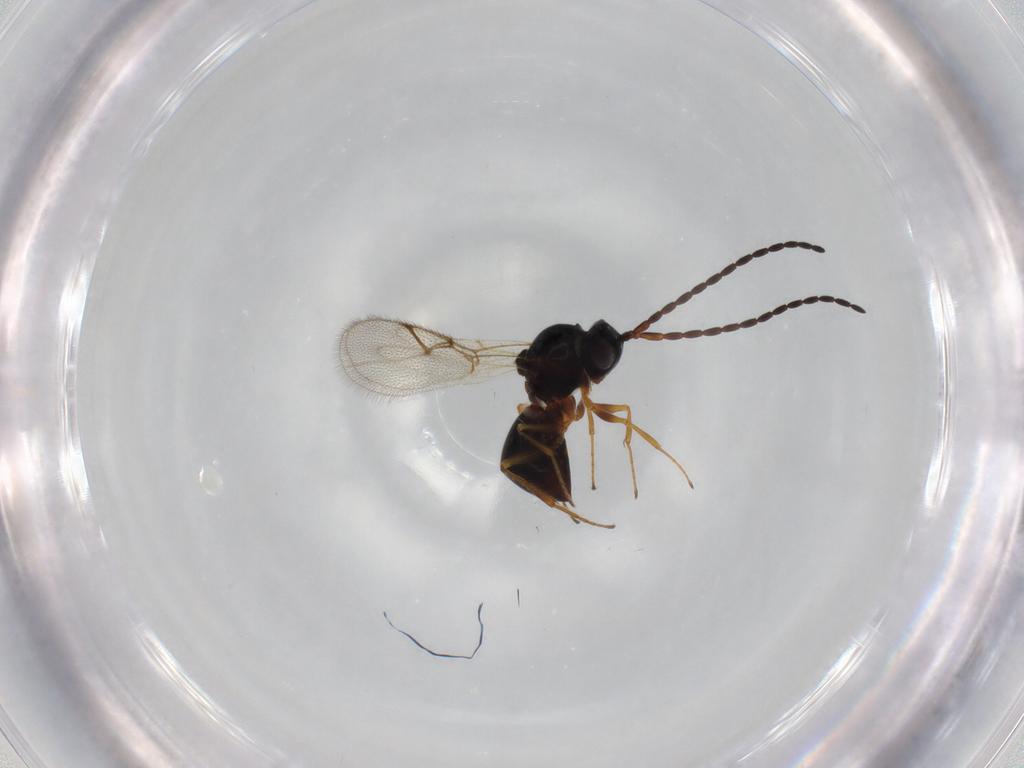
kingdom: Animalia
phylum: Arthropoda
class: Insecta
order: Hymenoptera
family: Figitidae
